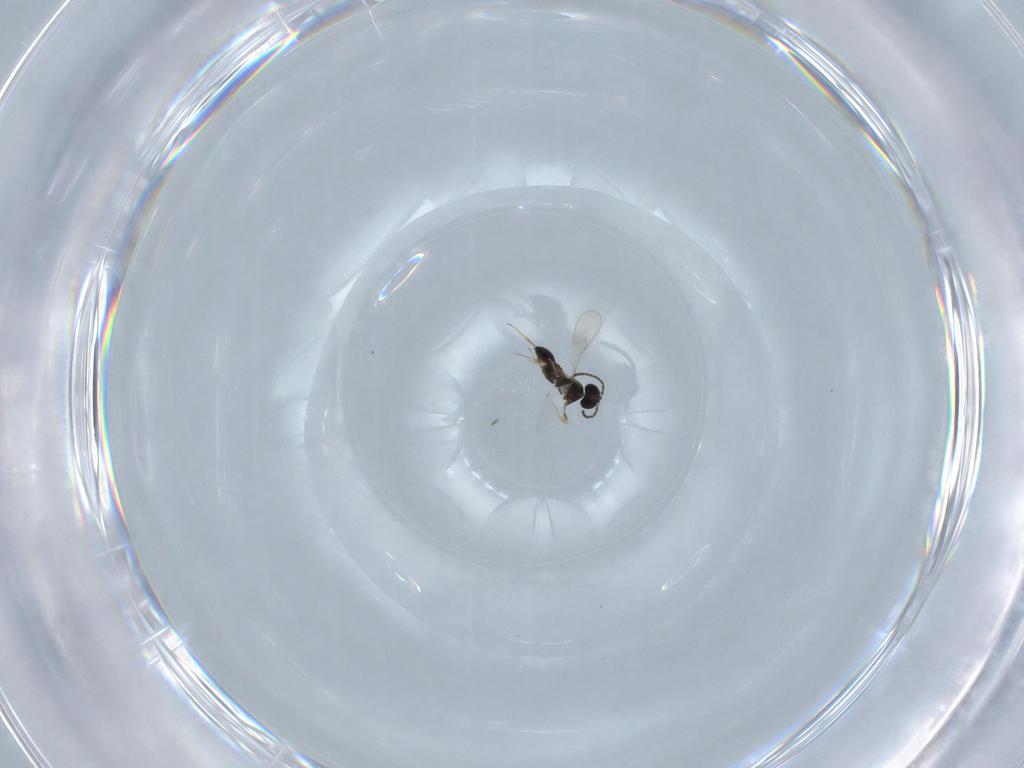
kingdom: Animalia
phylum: Arthropoda
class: Insecta
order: Hymenoptera
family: Scelionidae
